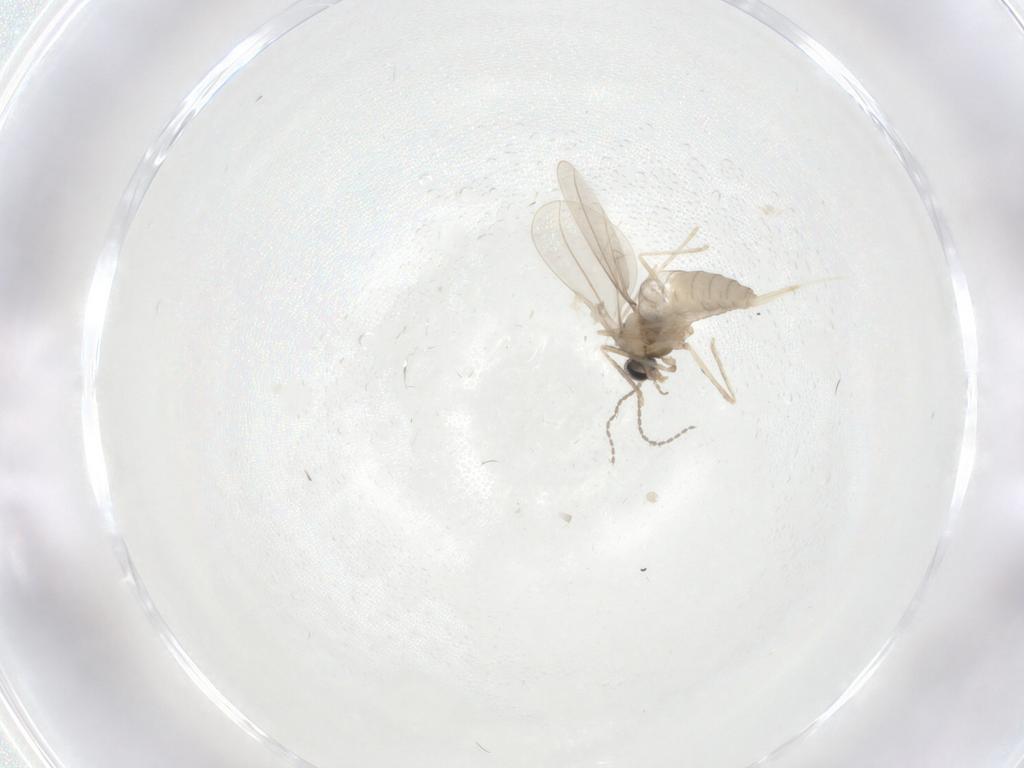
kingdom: Animalia
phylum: Arthropoda
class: Insecta
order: Diptera
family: Cecidomyiidae
